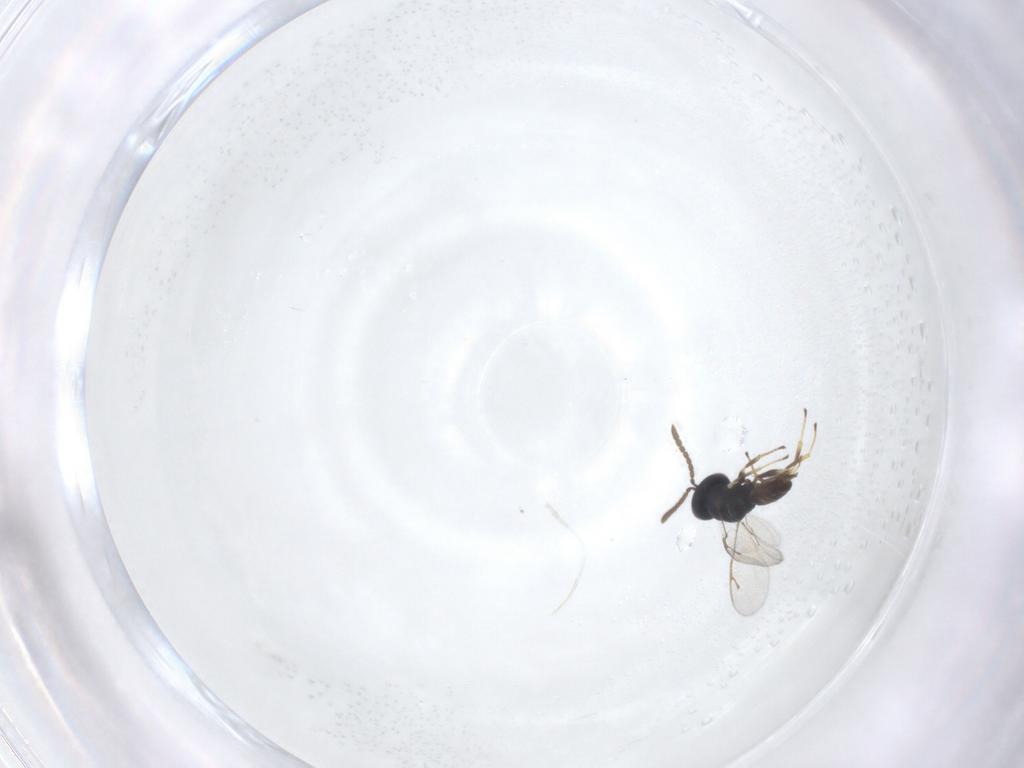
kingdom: Animalia
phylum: Arthropoda
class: Insecta
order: Hymenoptera
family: Pteromalidae
